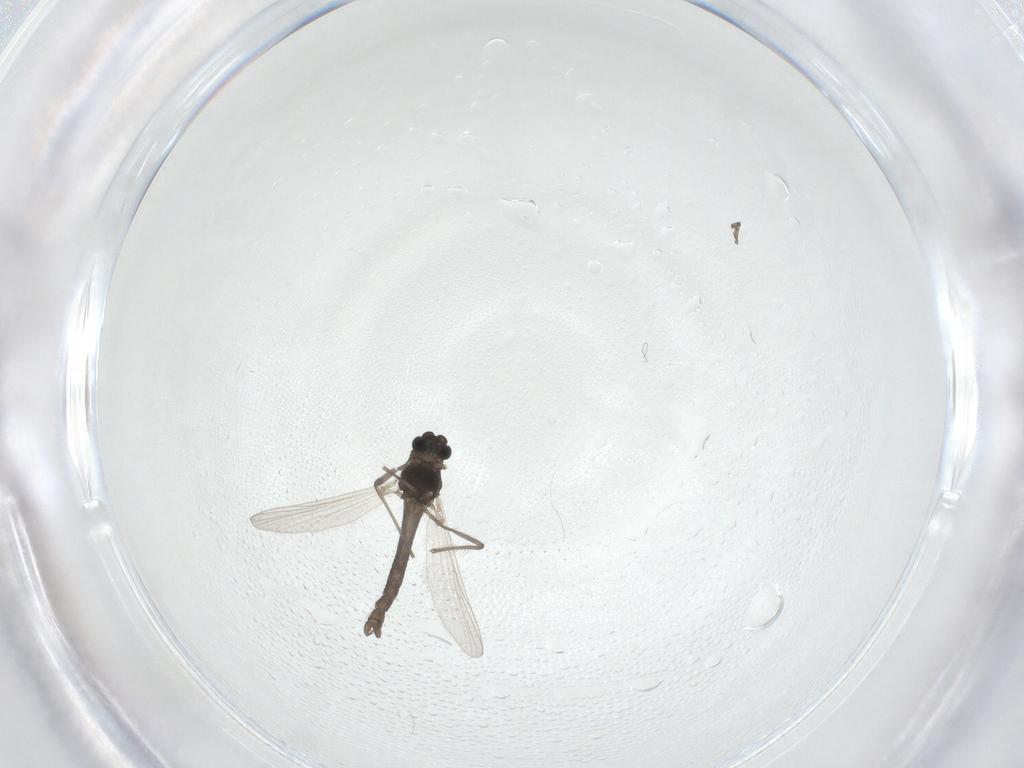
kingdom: Animalia
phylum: Arthropoda
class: Insecta
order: Diptera
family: Chironomidae
